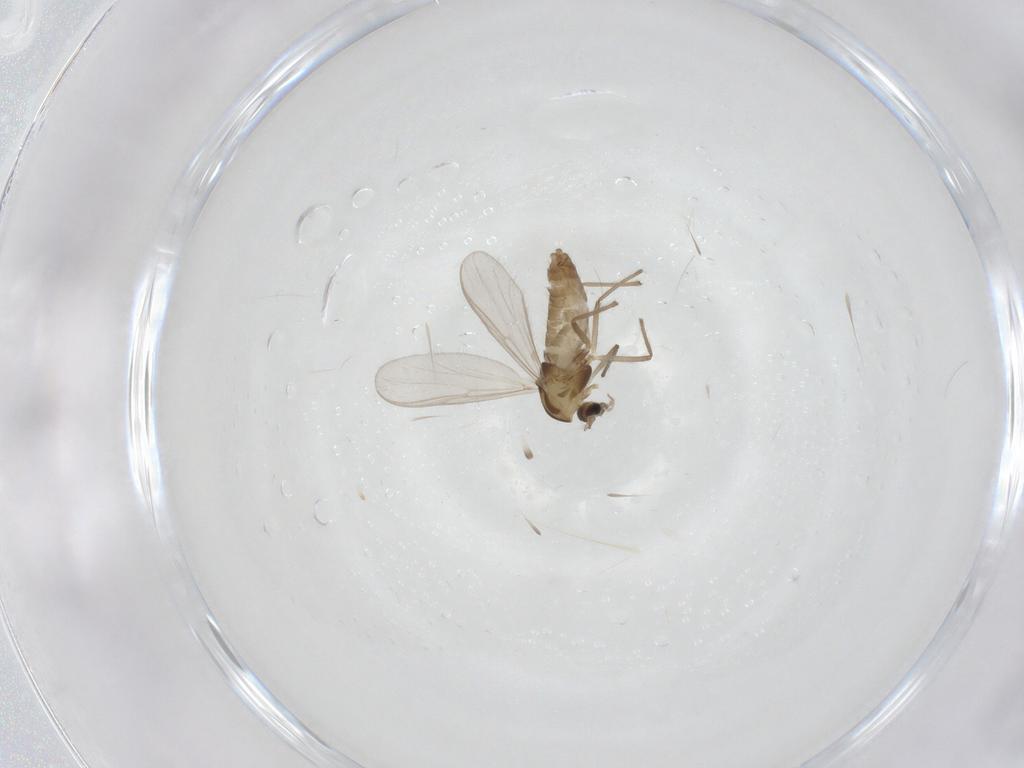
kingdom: Animalia
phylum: Arthropoda
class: Insecta
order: Diptera
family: Chironomidae
